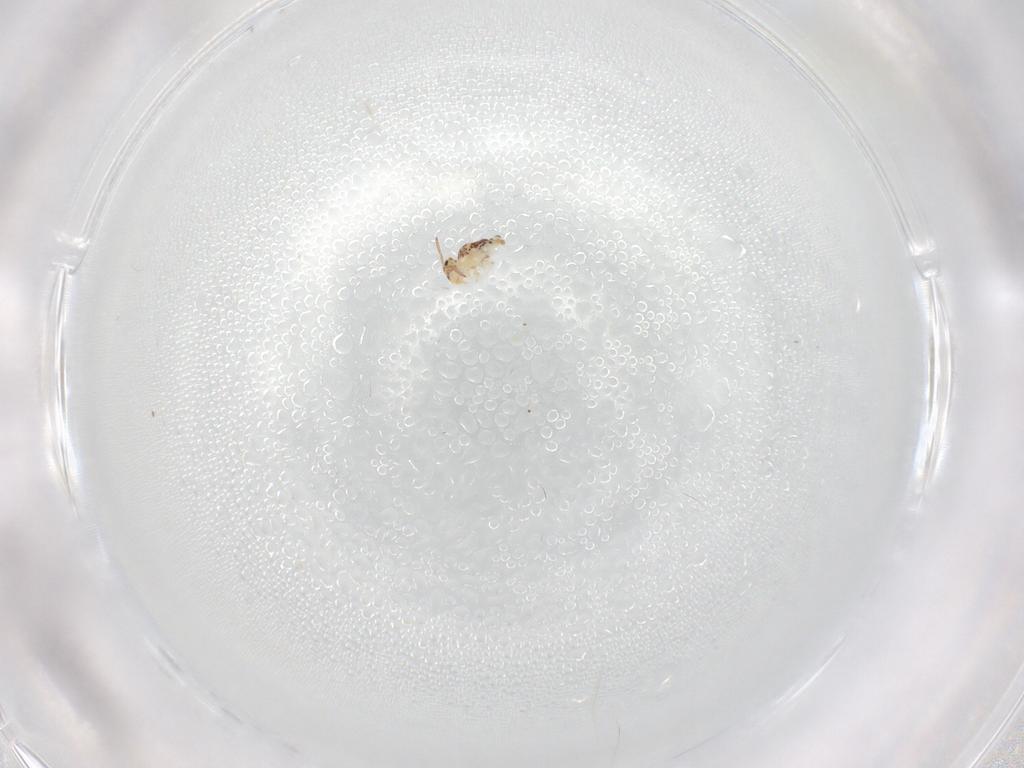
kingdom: Animalia
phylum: Arthropoda
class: Collembola
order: Symphypleona
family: Bourletiellidae
